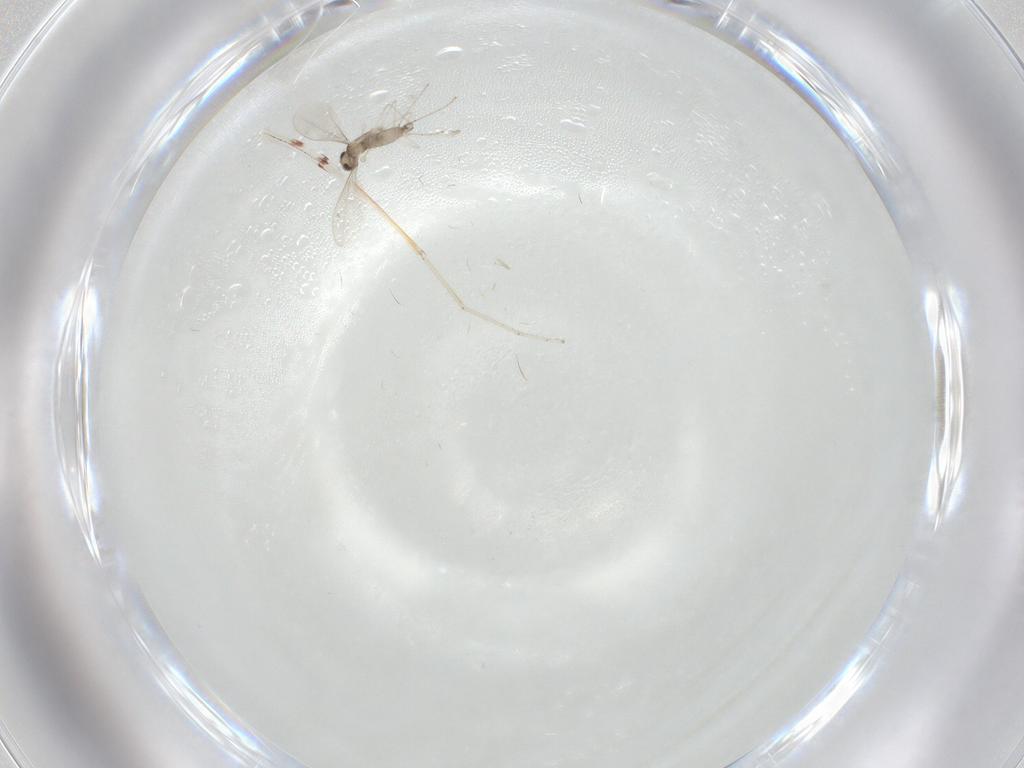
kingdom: Animalia
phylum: Arthropoda
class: Insecta
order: Diptera
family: Cecidomyiidae
